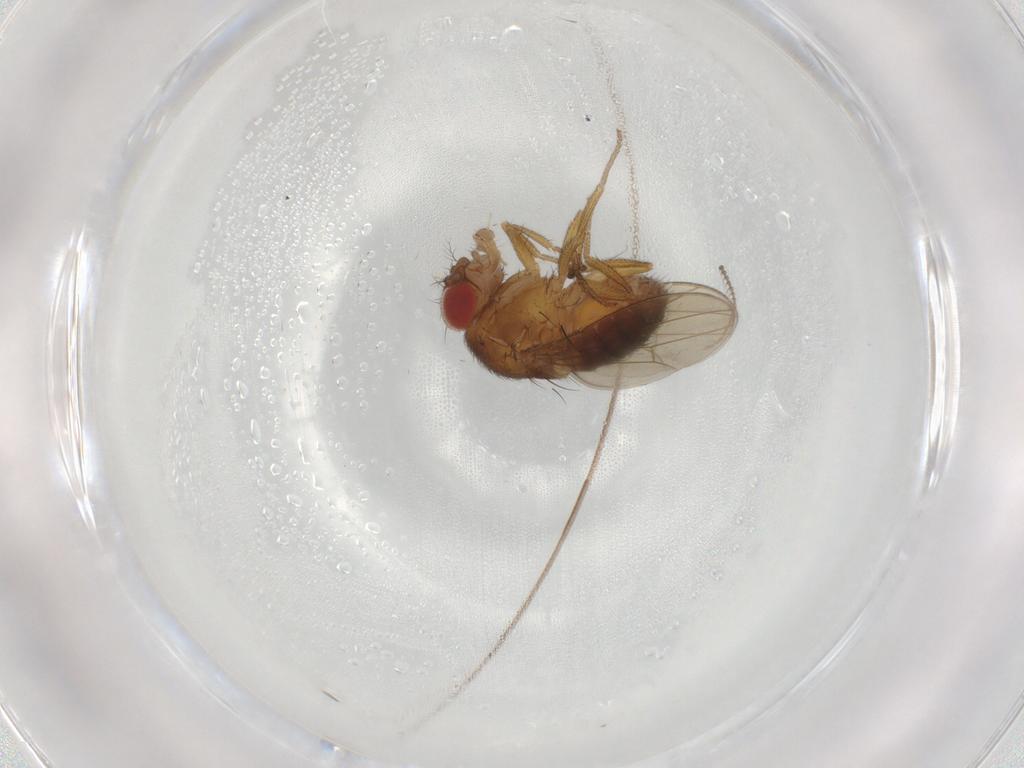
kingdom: Animalia
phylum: Arthropoda
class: Insecta
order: Diptera
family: Drosophilidae
